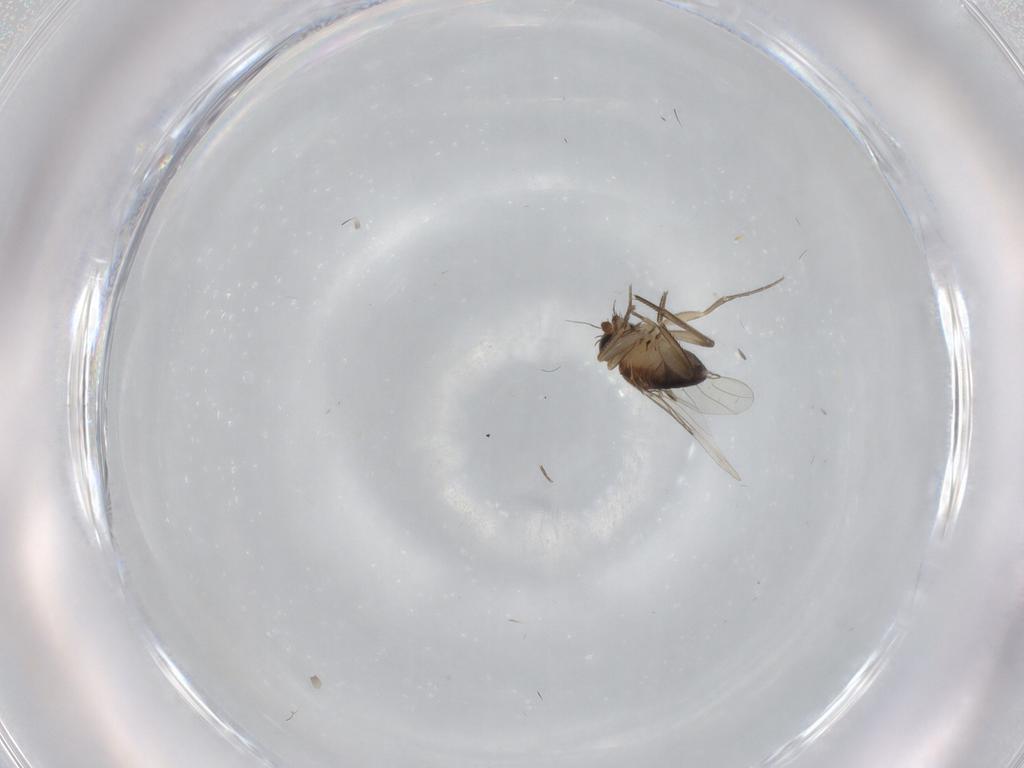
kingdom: Animalia
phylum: Arthropoda
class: Insecta
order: Diptera
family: Phoridae
